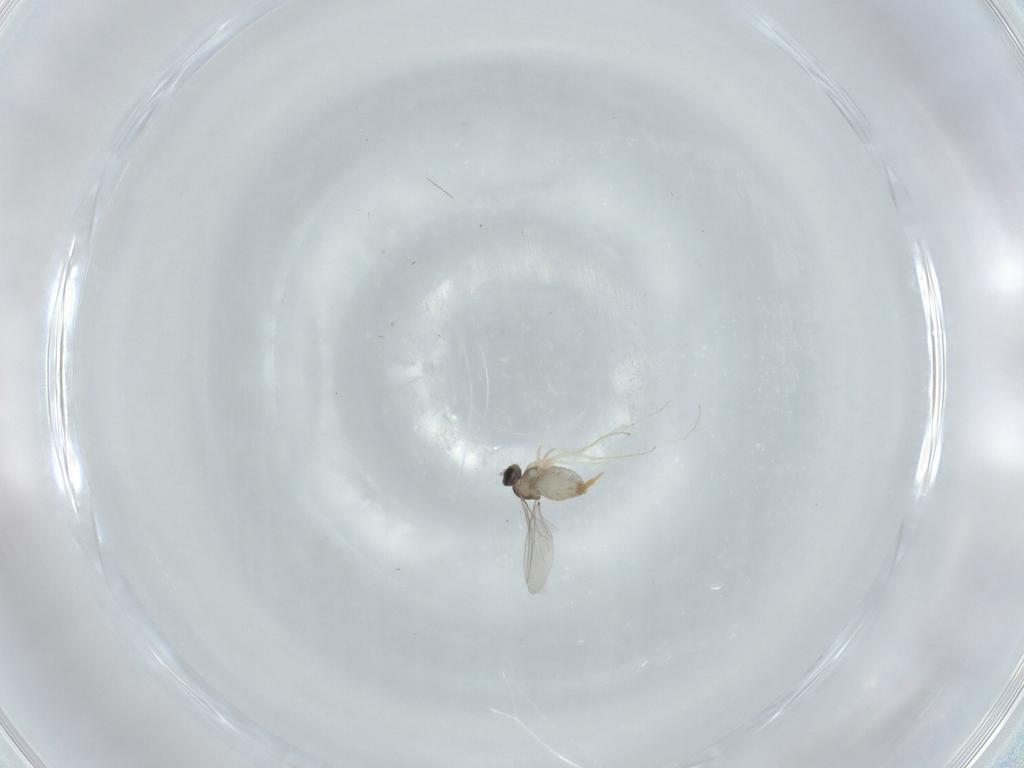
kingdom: Animalia
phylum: Arthropoda
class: Insecta
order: Diptera
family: Cecidomyiidae
